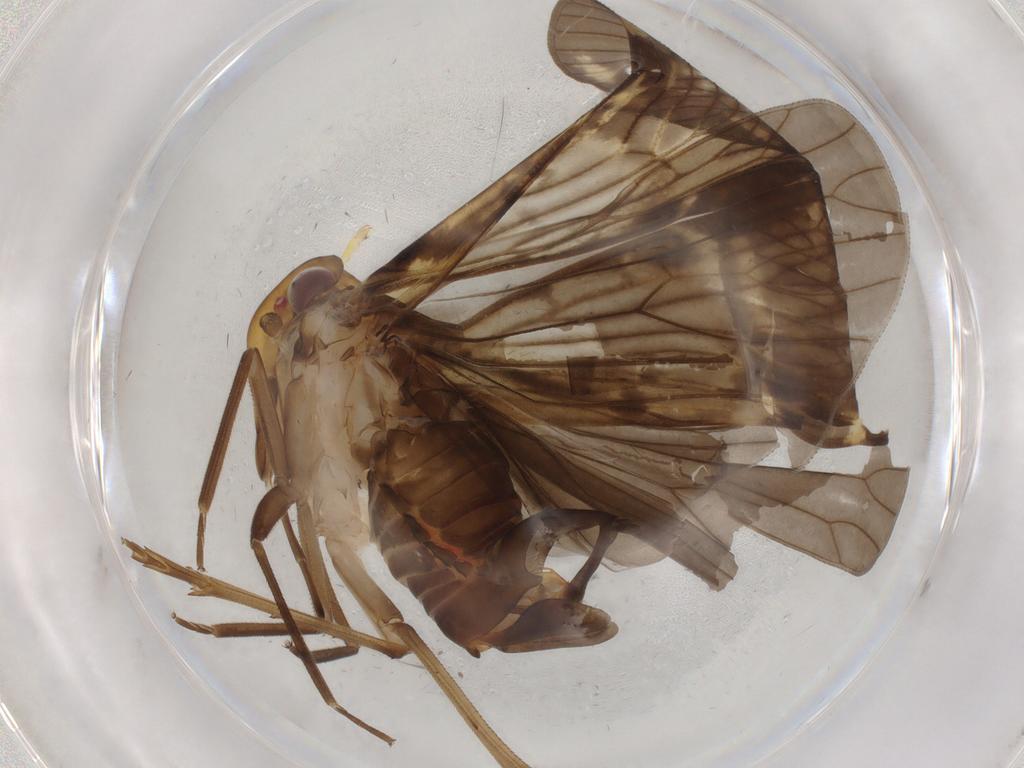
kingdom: Animalia
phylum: Arthropoda
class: Insecta
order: Hemiptera
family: Cixiidae
